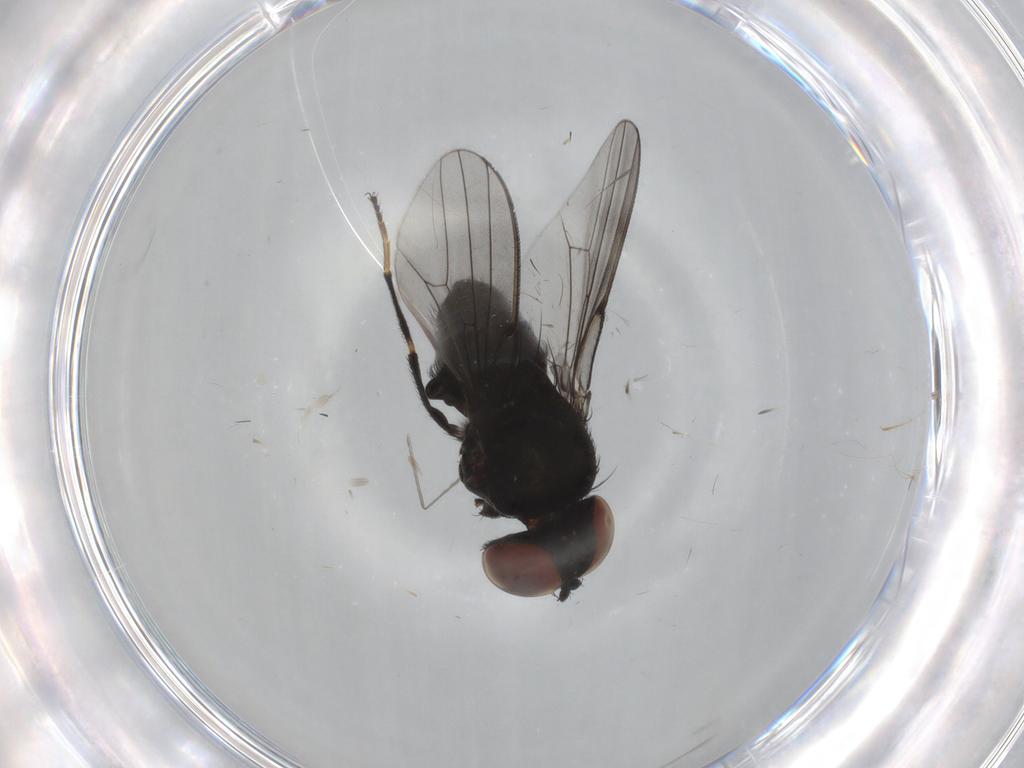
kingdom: Animalia
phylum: Arthropoda
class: Insecta
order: Diptera
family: Milichiidae
